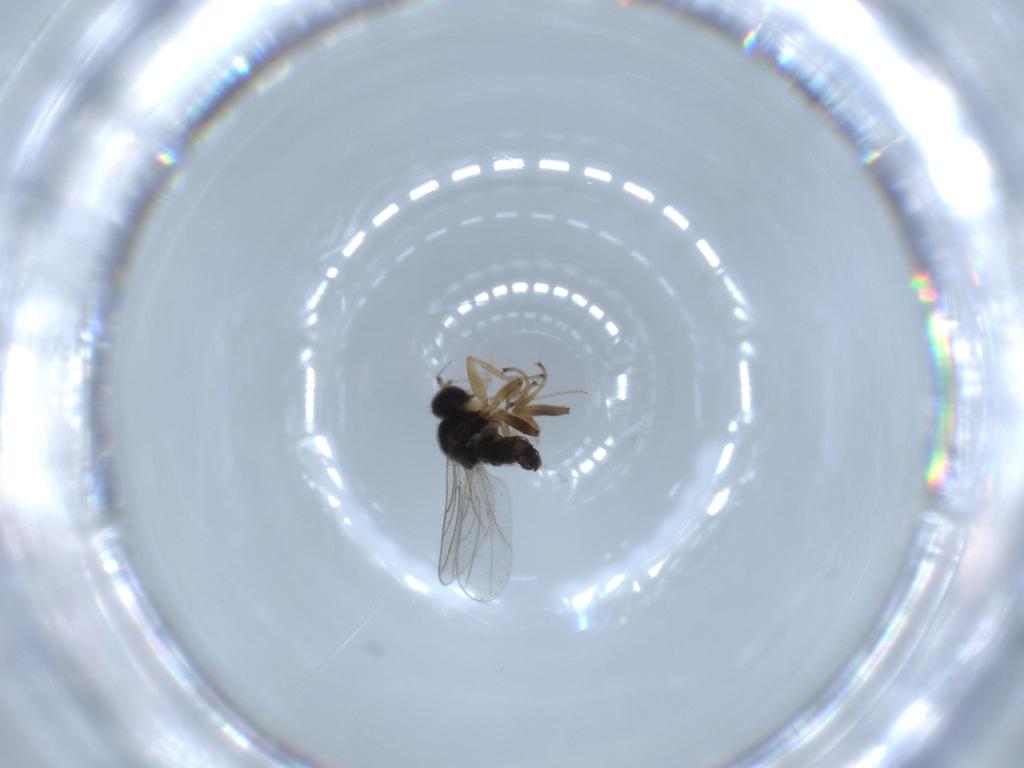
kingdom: Animalia
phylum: Arthropoda
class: Insecta
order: Diptera
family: Hybotidae
